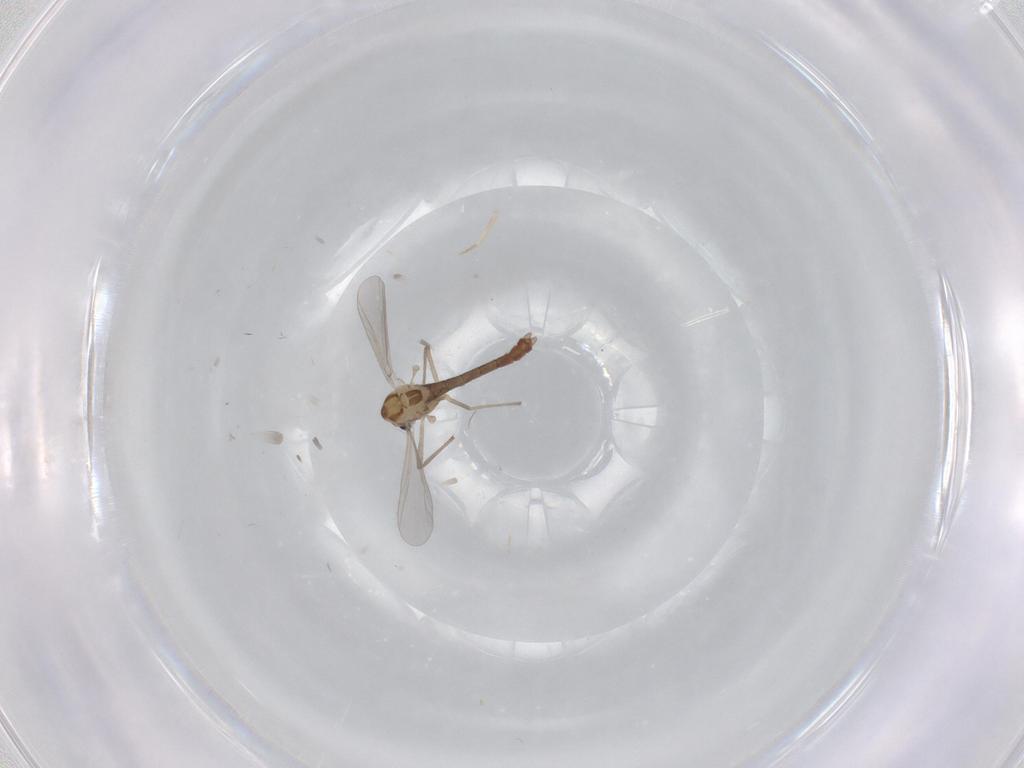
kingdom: Animalia
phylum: Arthropoda
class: Insecta
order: Diptera
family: Chironomidae
